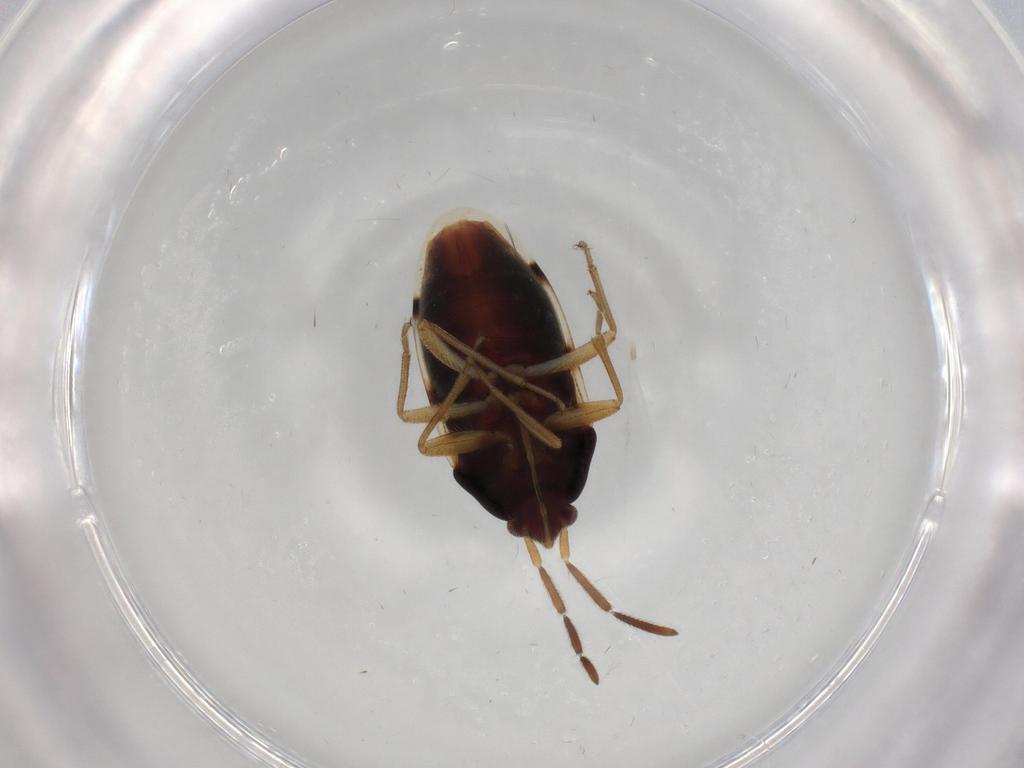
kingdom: Animalia
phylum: Arthropoda
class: Insecta
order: Hemiptera
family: Rhyparochromidae
